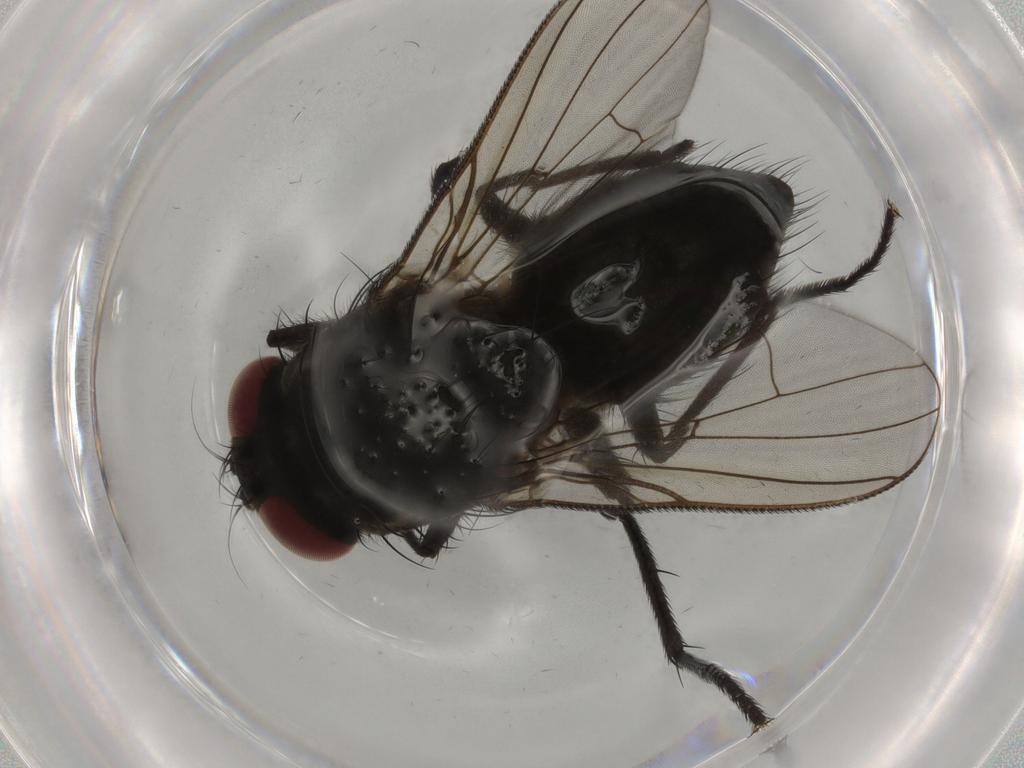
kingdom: Animalia
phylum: Arthropoda
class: Insecta
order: Diptera
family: Muscidae
